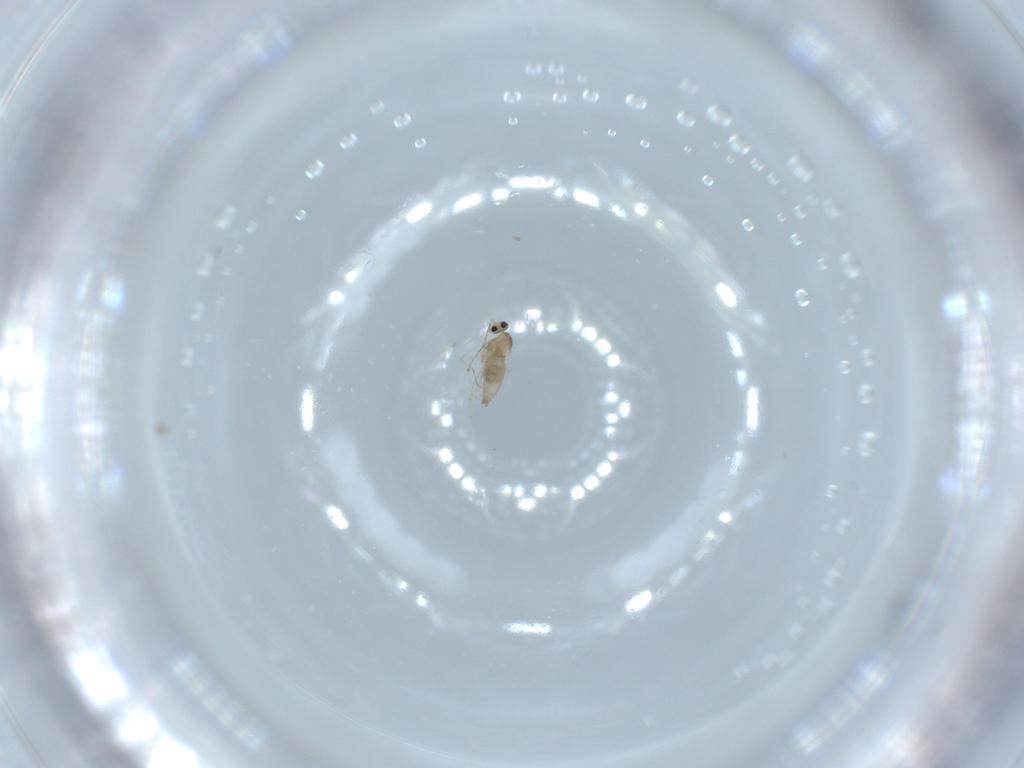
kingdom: Animalia
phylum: Arthropoda
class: Insecta
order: Diptera
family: Cecidomyiidae
